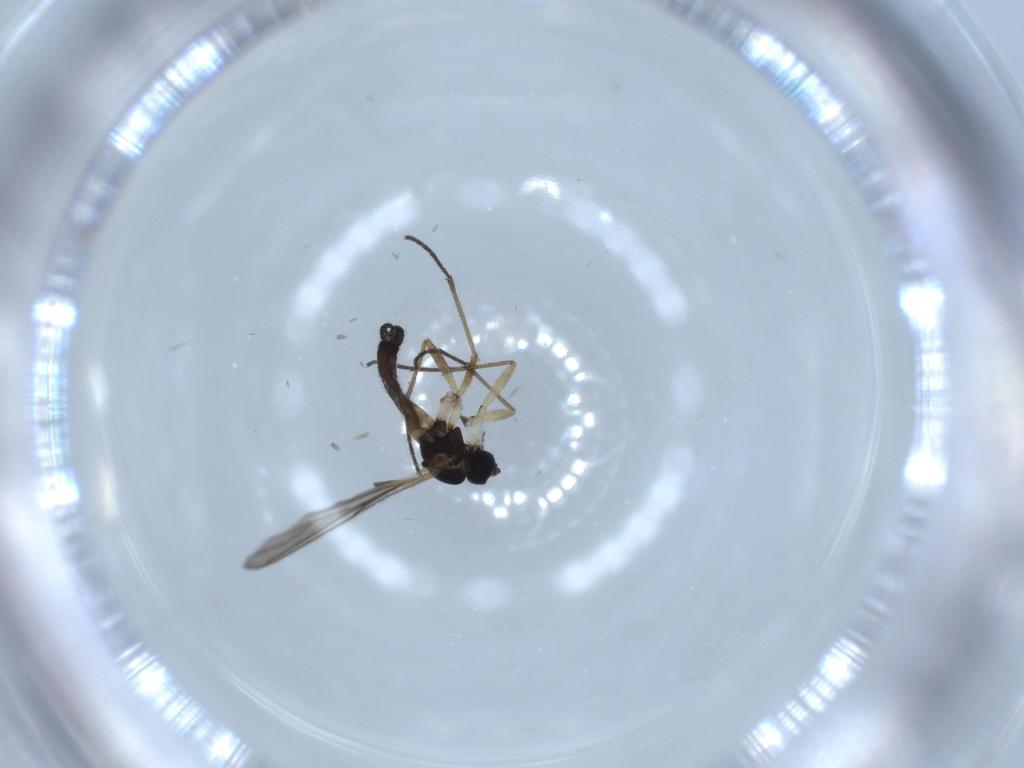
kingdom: Animalia
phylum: Arthropoda
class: Insecta
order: Diptera
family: Sciaridae
